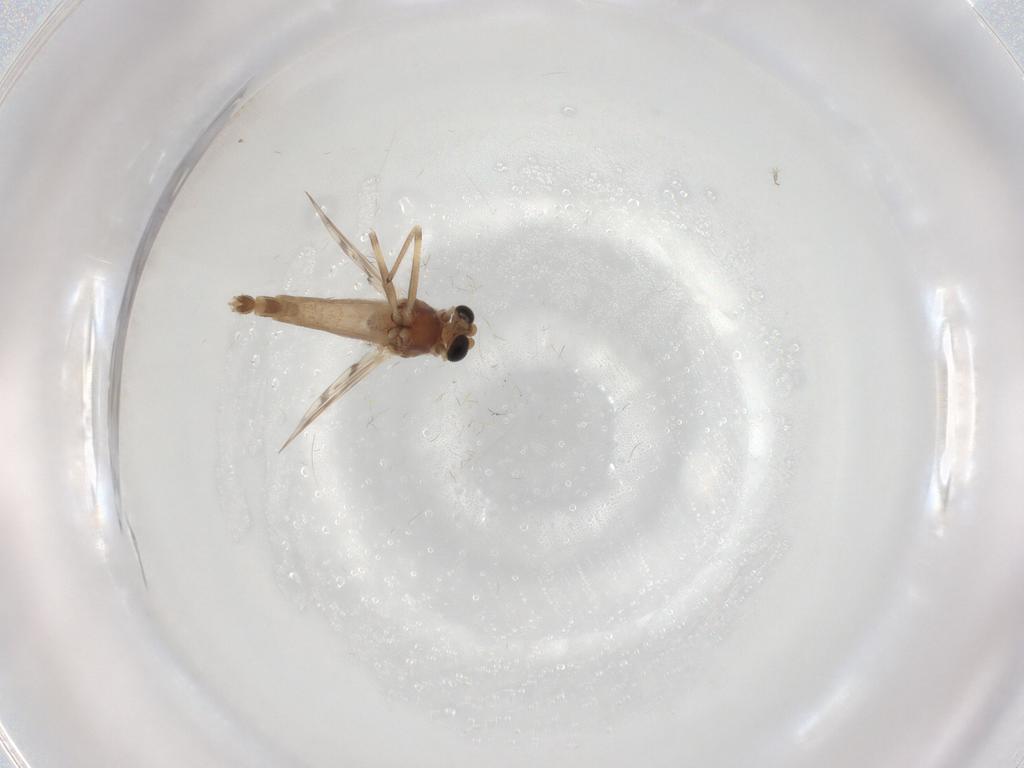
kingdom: Animalia
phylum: Arthropoda
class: Insecta
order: Diptera
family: Chironomidae
